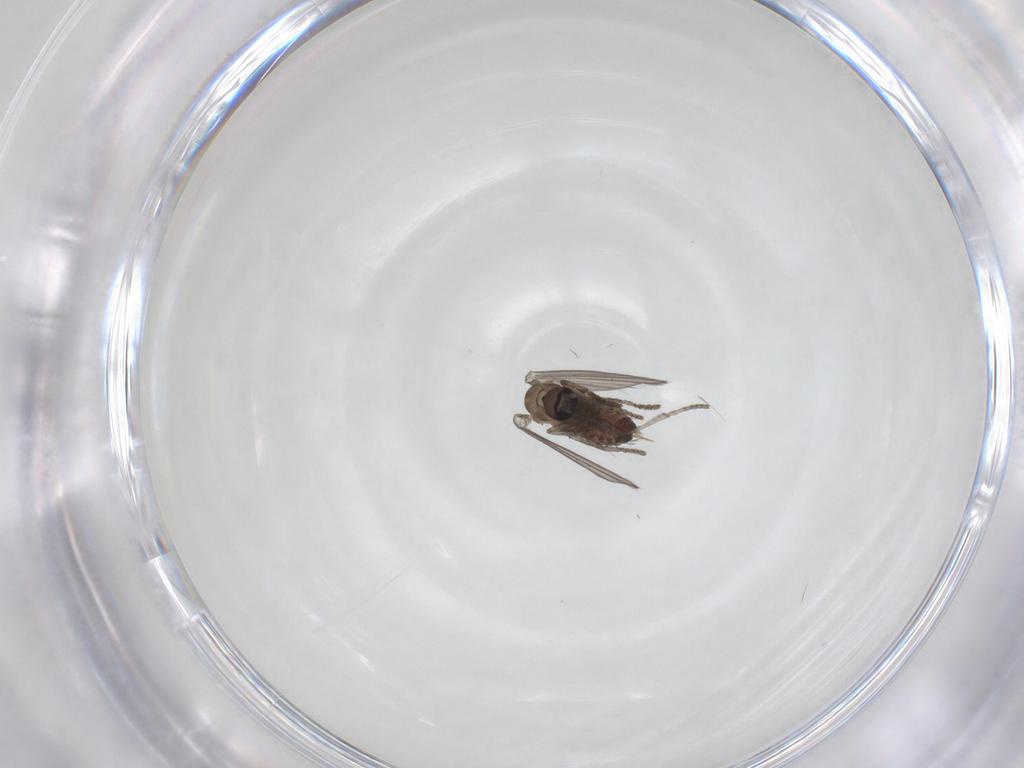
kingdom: Animalia
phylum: Arthropoda
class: Insecta
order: Diptera
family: Psychodidae
